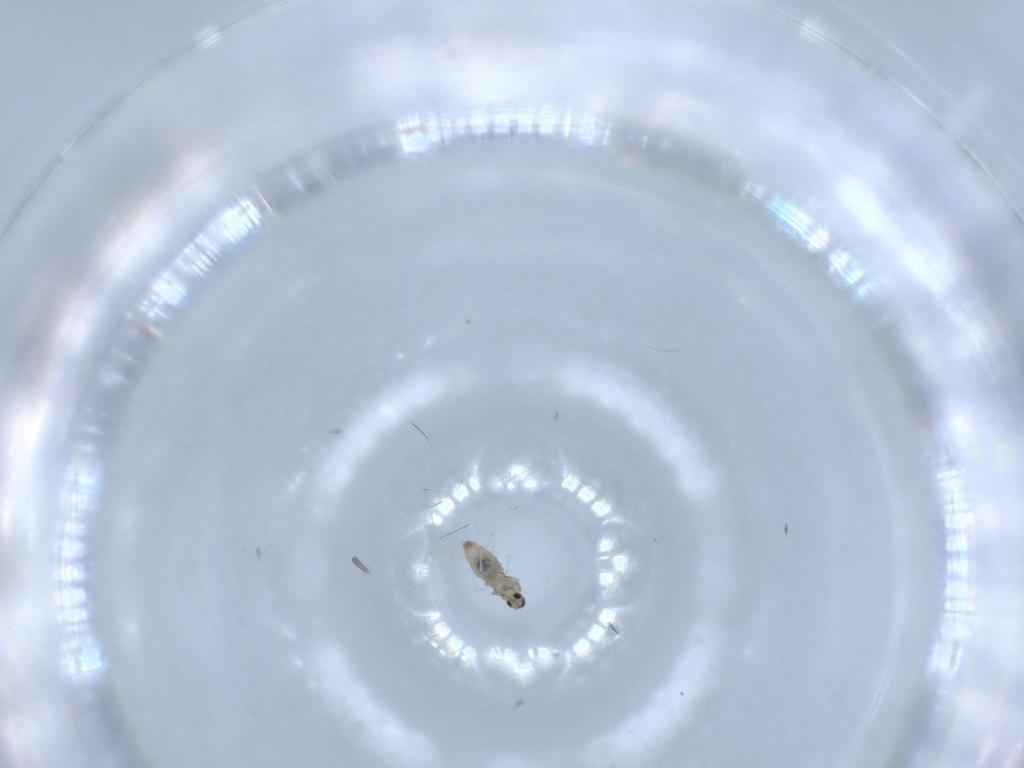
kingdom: Animalia
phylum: Arthropoda
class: Insecta
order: Diptera
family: Cecidomyiidae
